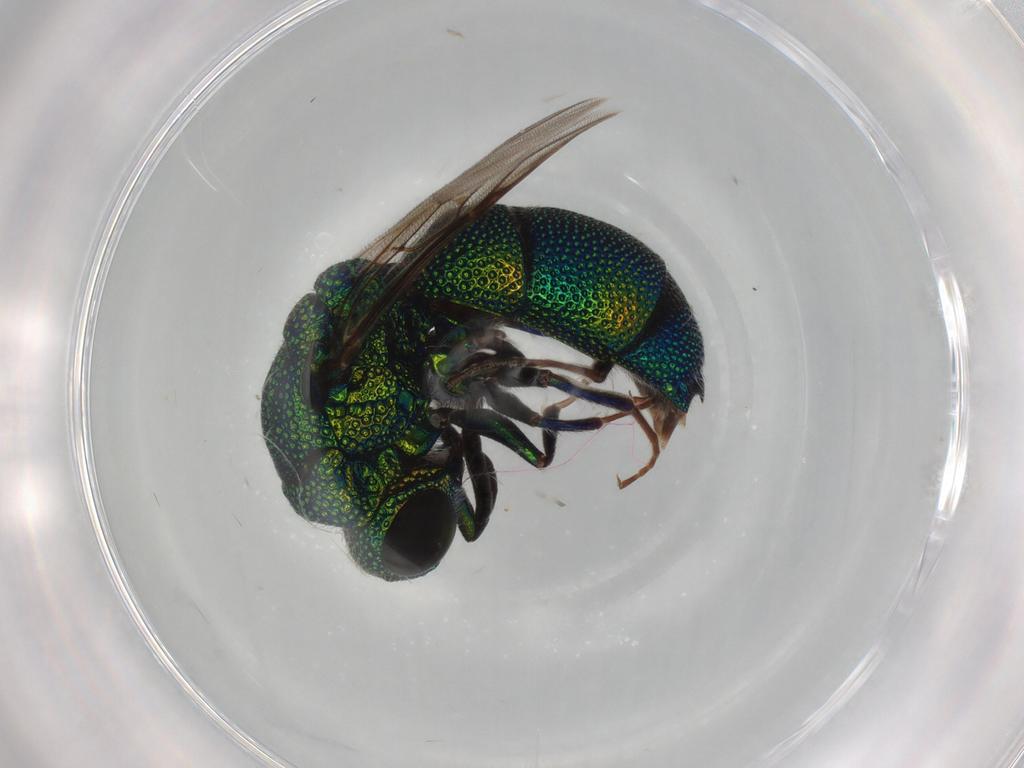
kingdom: Animalia
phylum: Arthropoda
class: Insecta
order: Hymenoptera
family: Chrysididae
